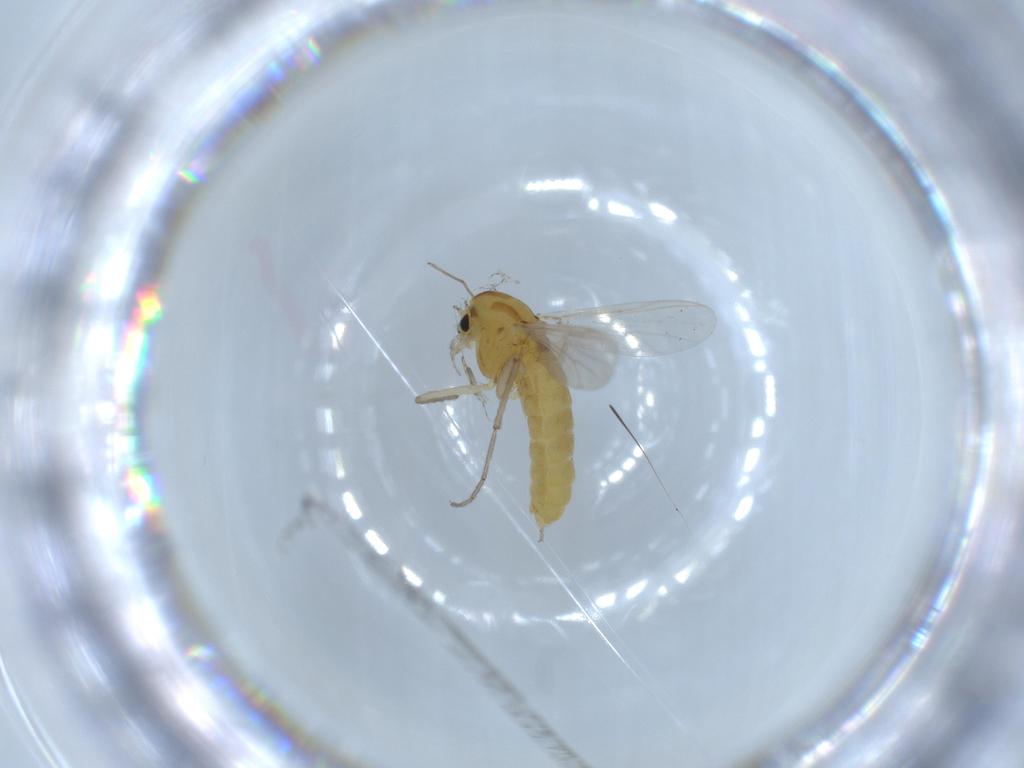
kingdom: Animalia
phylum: Arthropoda
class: Insecta
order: Diptera
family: Chironomidae
